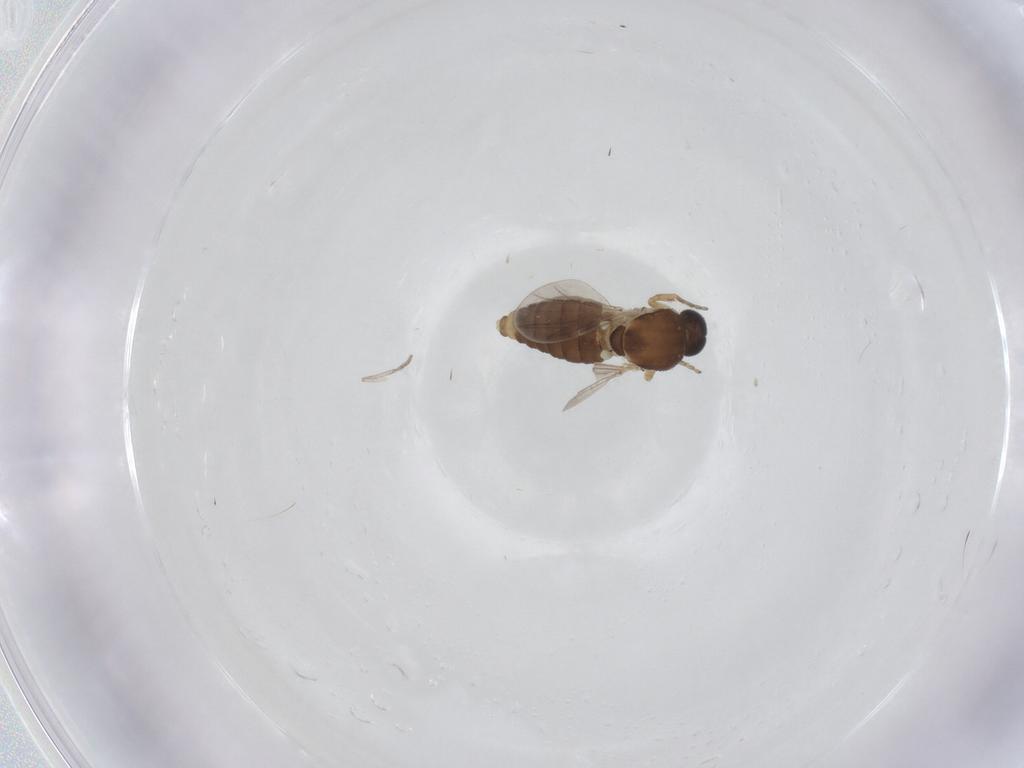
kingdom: Animalia
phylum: Arthropoda
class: Insecta
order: Diptera
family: Ceratopogonidae
